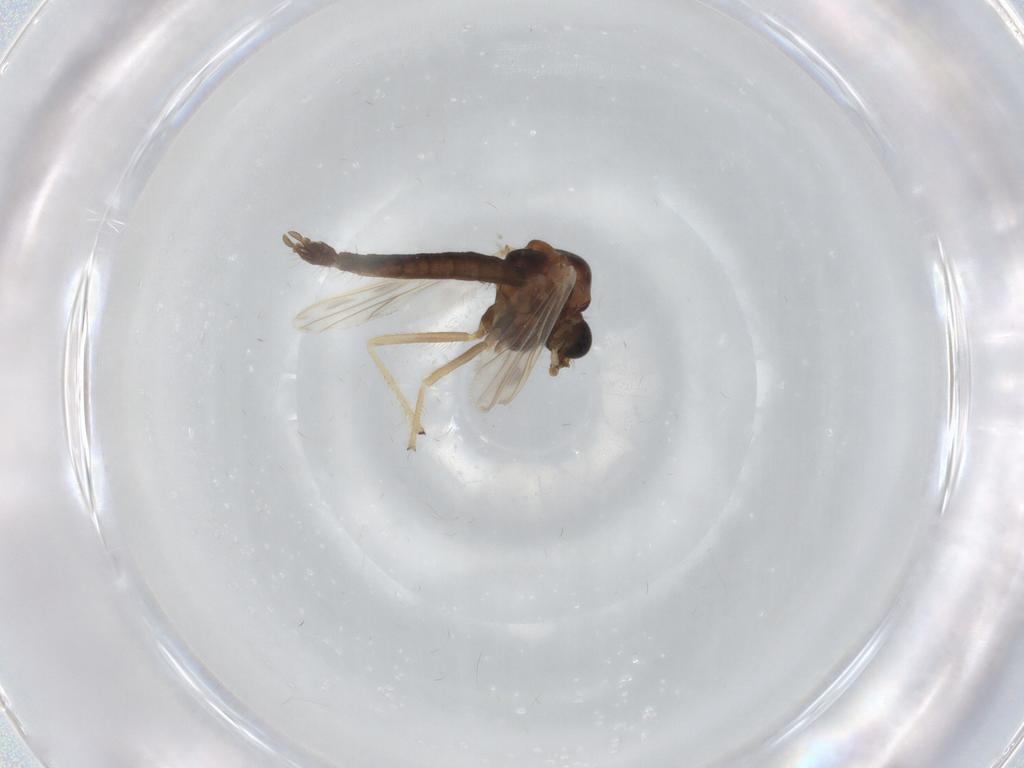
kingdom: Animalia
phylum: Arthropoda
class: Insecta
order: Diptera
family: Chironomidae
